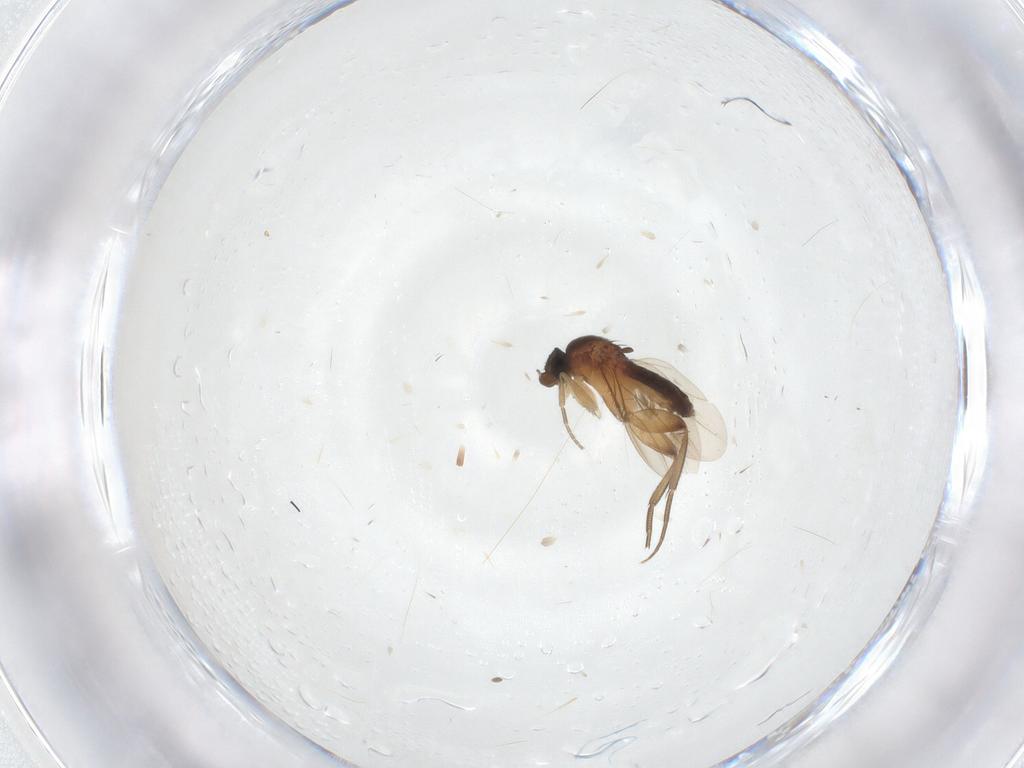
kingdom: Animalia
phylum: Arthropoda
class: Insecta
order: Diptera
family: Phoridae
